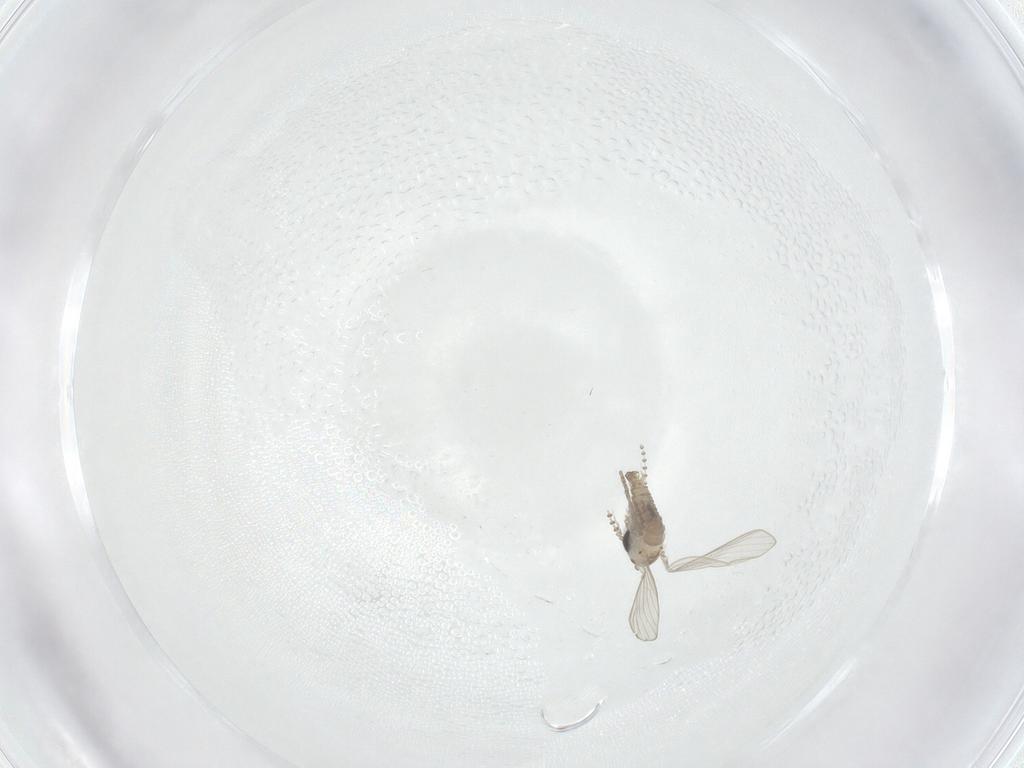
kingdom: Animalia
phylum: Arthropoda
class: Insecta
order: Diptera
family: Psychodidae
